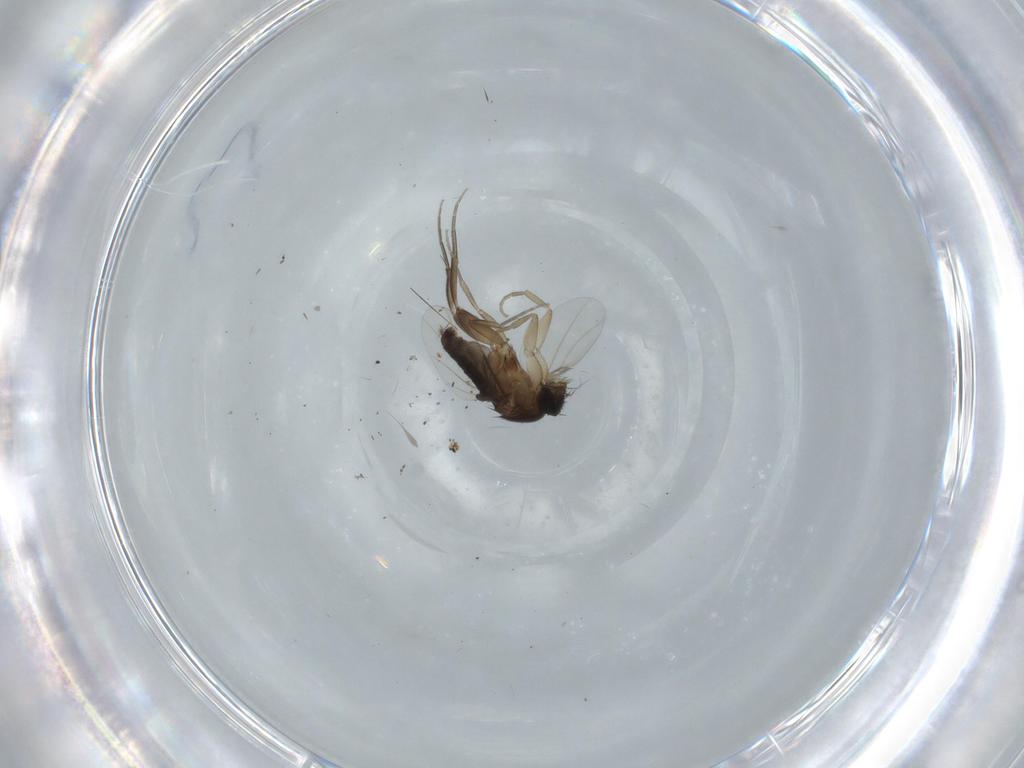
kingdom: Animalia
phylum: Arthropoda
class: Insecta
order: Diptera
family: Phoridae
